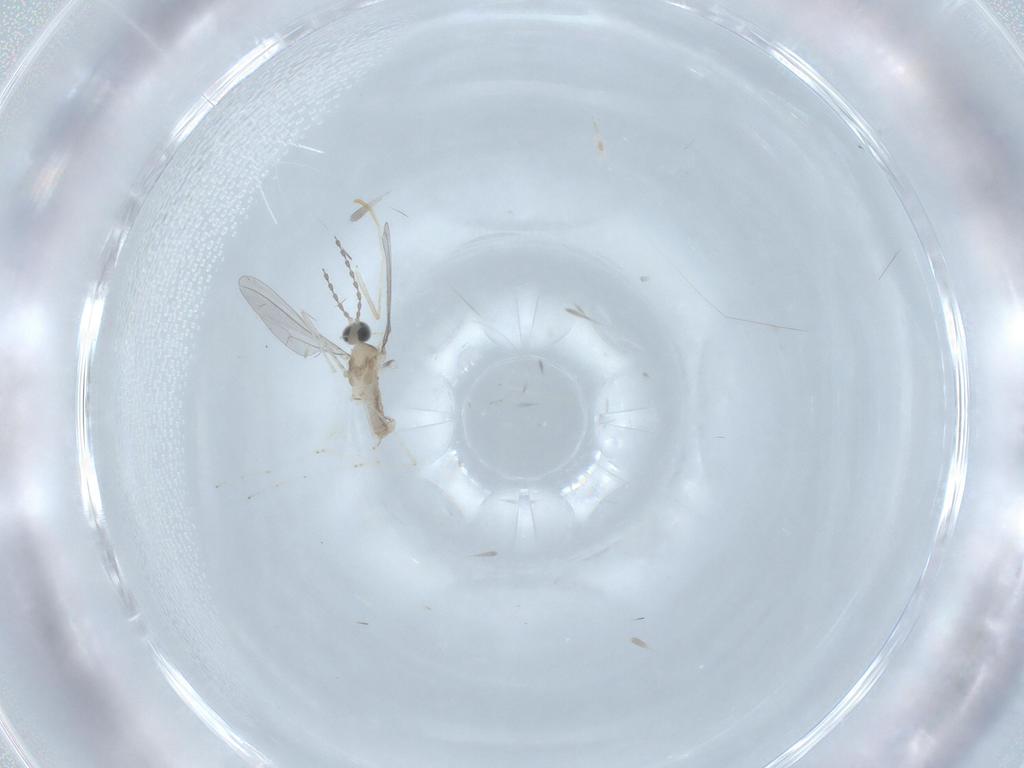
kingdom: Animalia
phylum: Arthropoda
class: Insecta
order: Diptera
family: Cecidomyiidae
